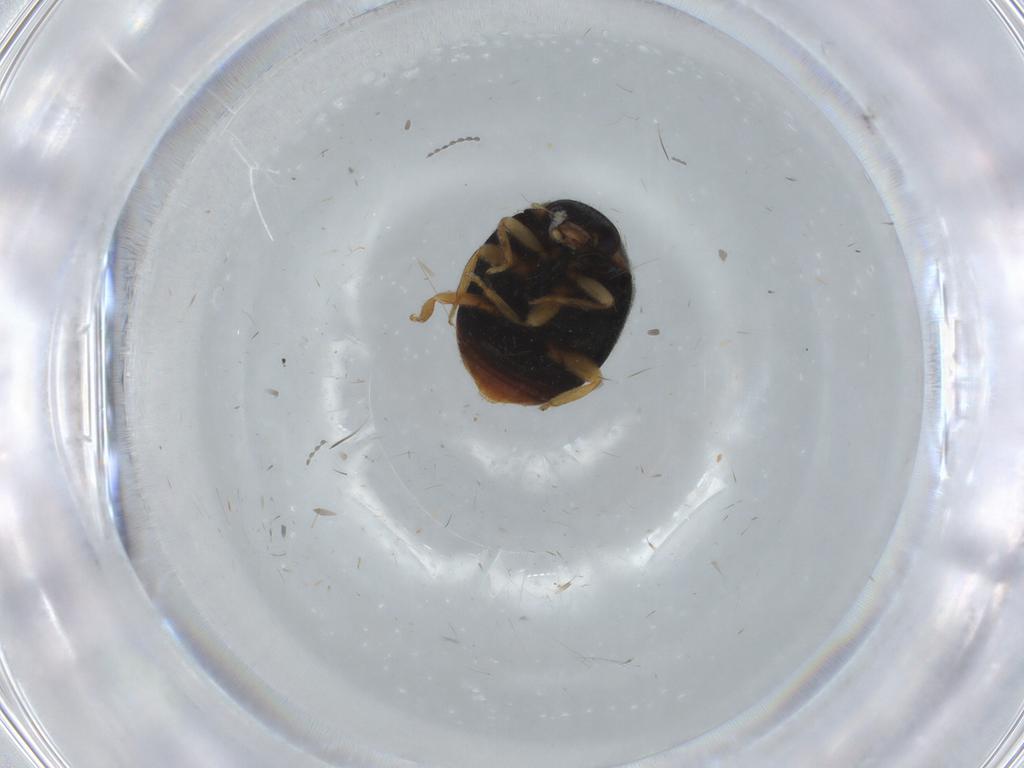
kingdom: Animalia
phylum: Arthropoda
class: Insecta
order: Coleoptera
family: Coccinellidae
